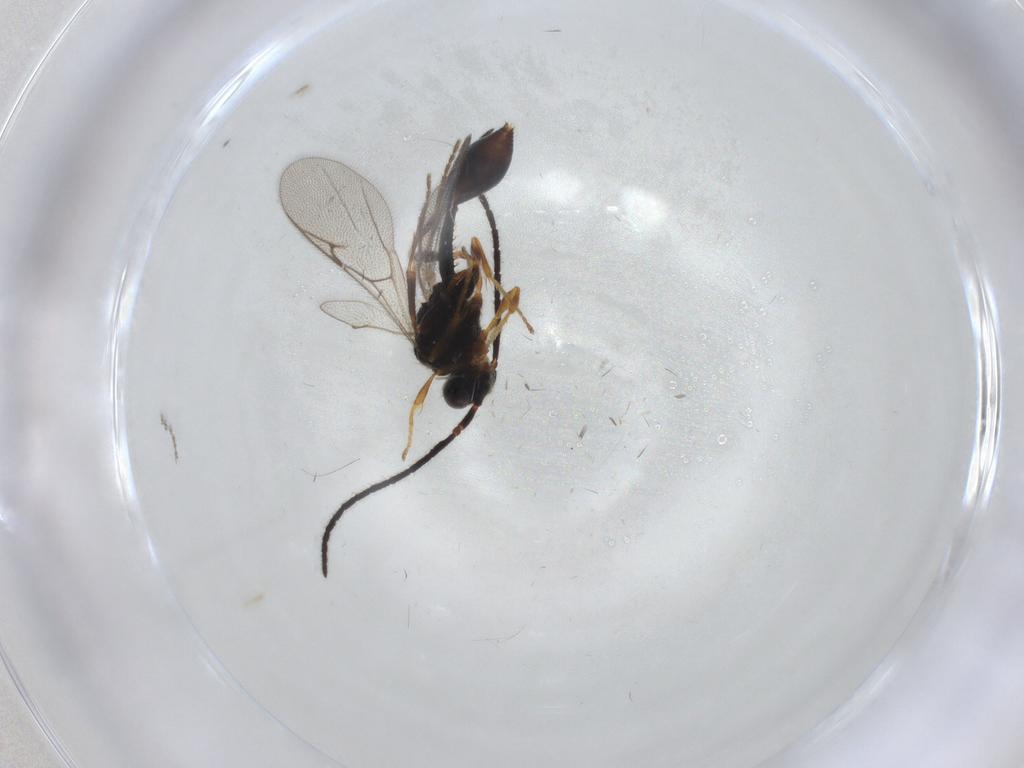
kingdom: Animalia
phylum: Arthropoda
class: Insecta
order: Hymenoptera
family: Diapriidae
